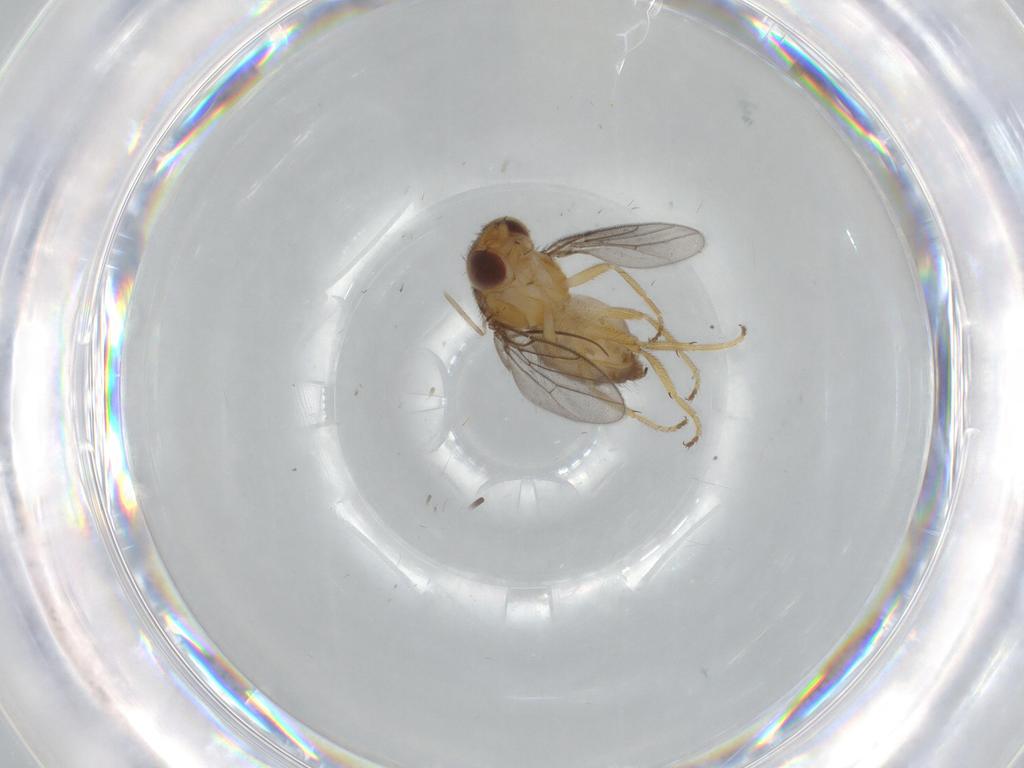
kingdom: Animalia
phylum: Arthropoda
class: Insecta
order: Diptera
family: Chloropidae
